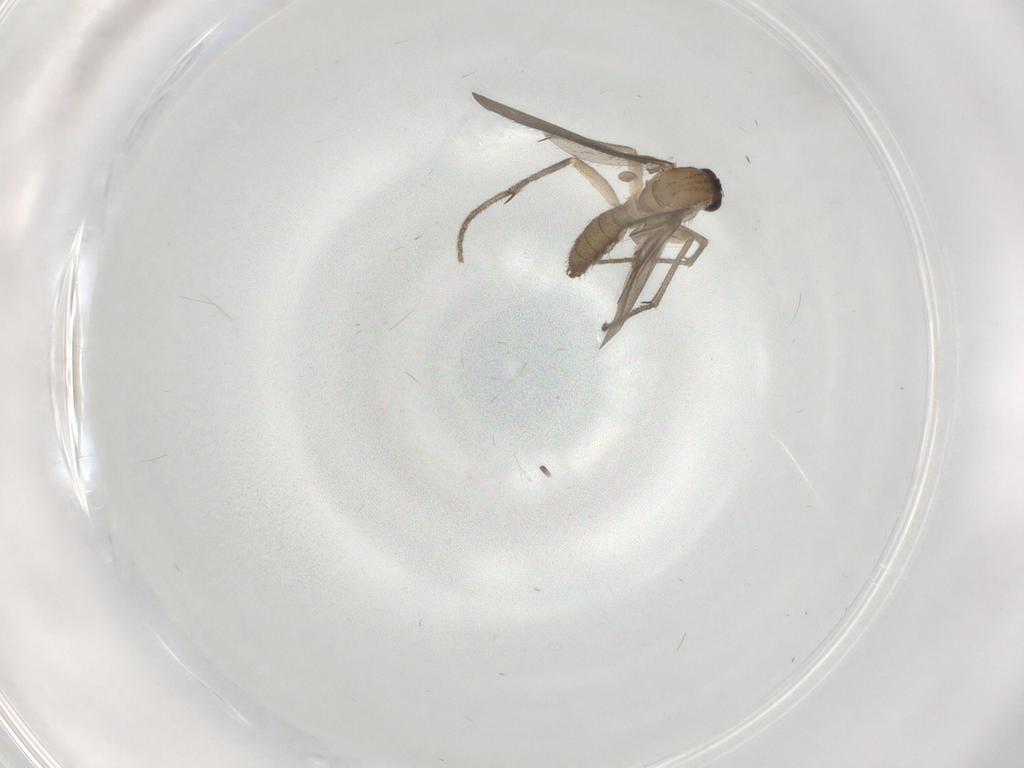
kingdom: Animalia
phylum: Arthropoda
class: Insecta
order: Diptera
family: Diadocidiidae
